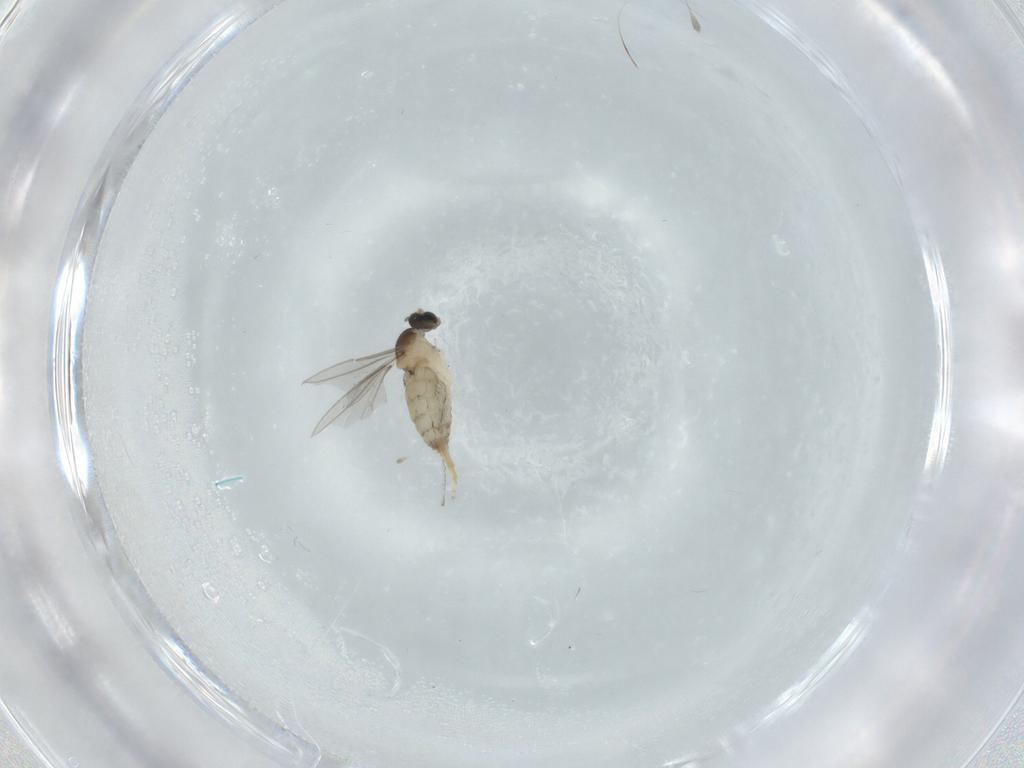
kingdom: Animalia
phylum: Arthropoda
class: Insecta
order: Diptera
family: Cecidomyiidae
